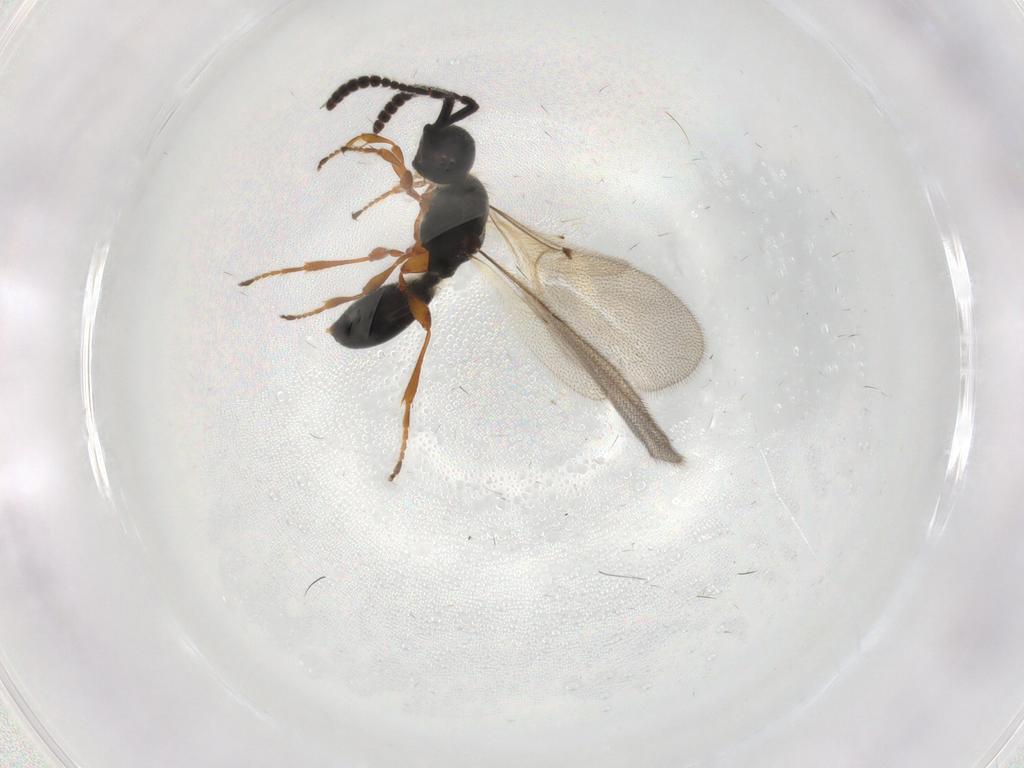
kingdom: Animalia
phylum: Arthropoda
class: Insecta
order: Hymenoptera
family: Diapriidae
